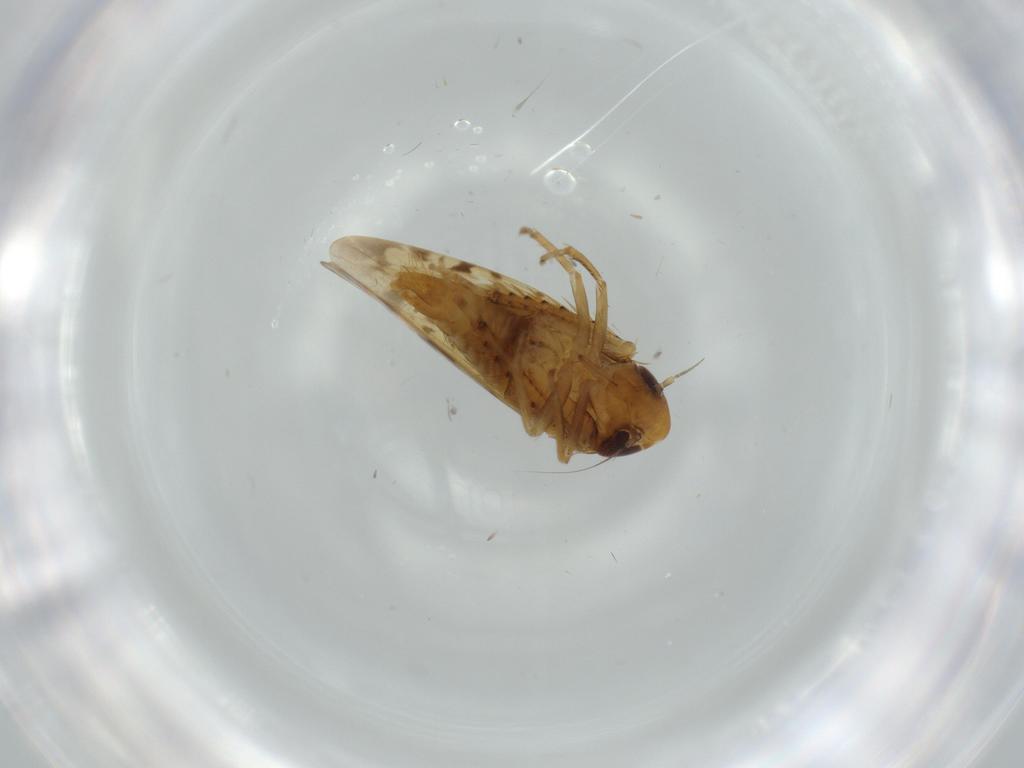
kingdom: Animalia
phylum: Arthropoda
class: Insecta
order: Hemiptera
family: Cicadellidae
